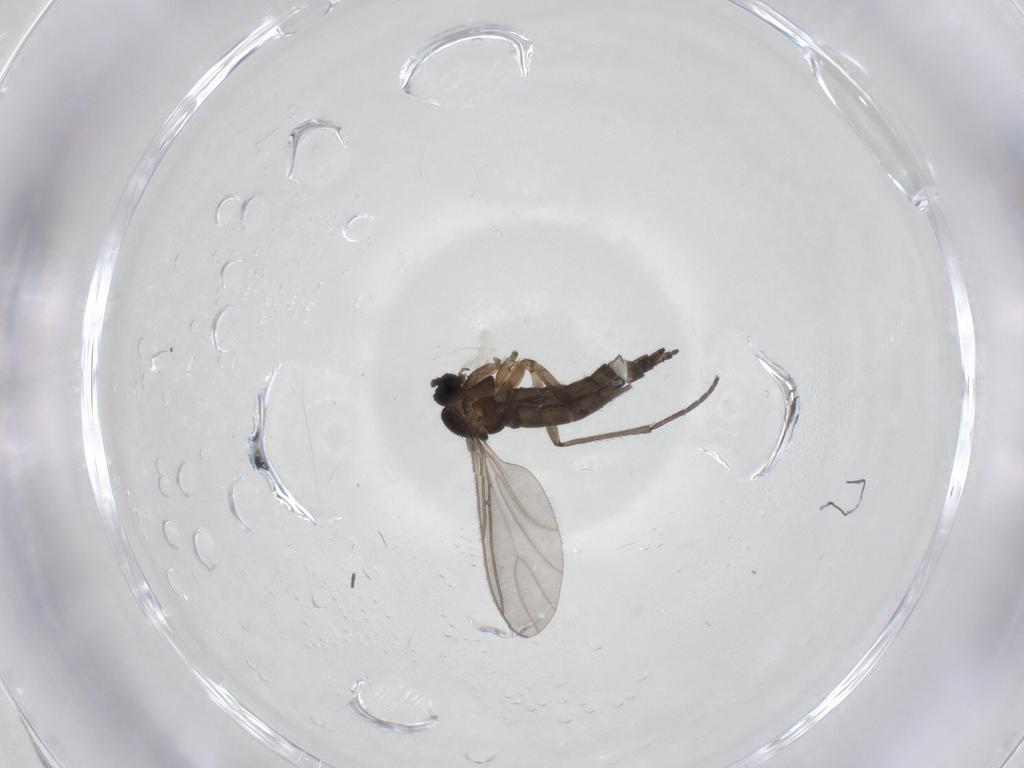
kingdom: Animalia
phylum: Arthropoda
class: Insecta
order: Diptera
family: Sciaridae
